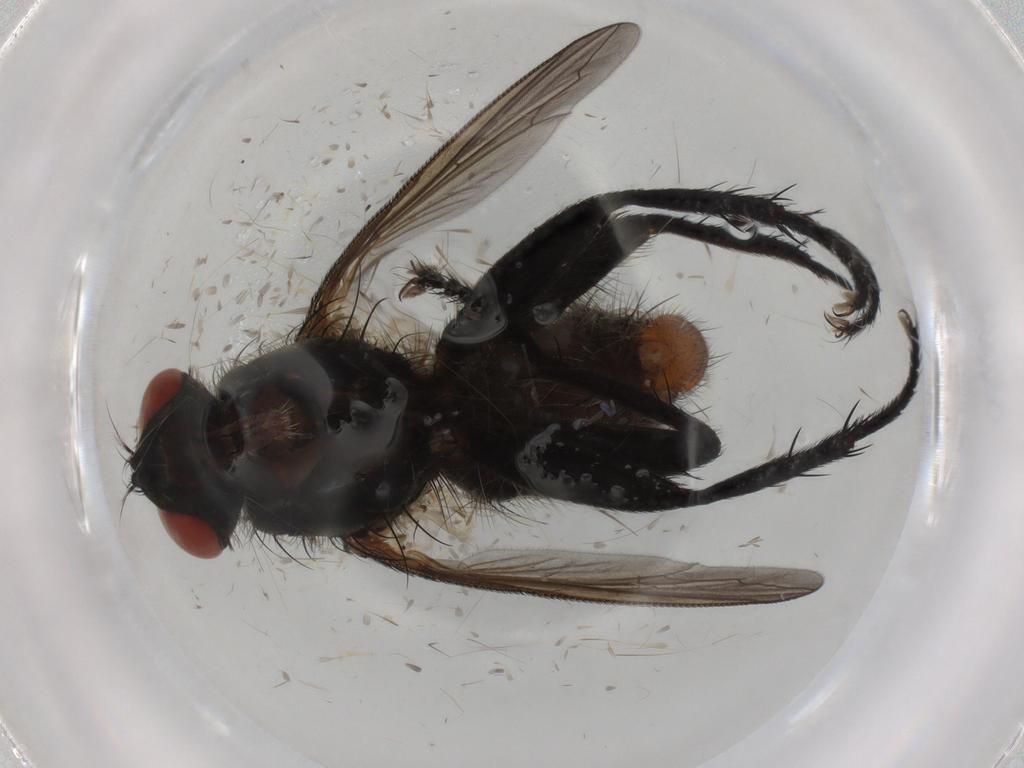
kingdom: Animalia
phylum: Arthropoda
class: Insecta
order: Diptera
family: Sarcophagidae
